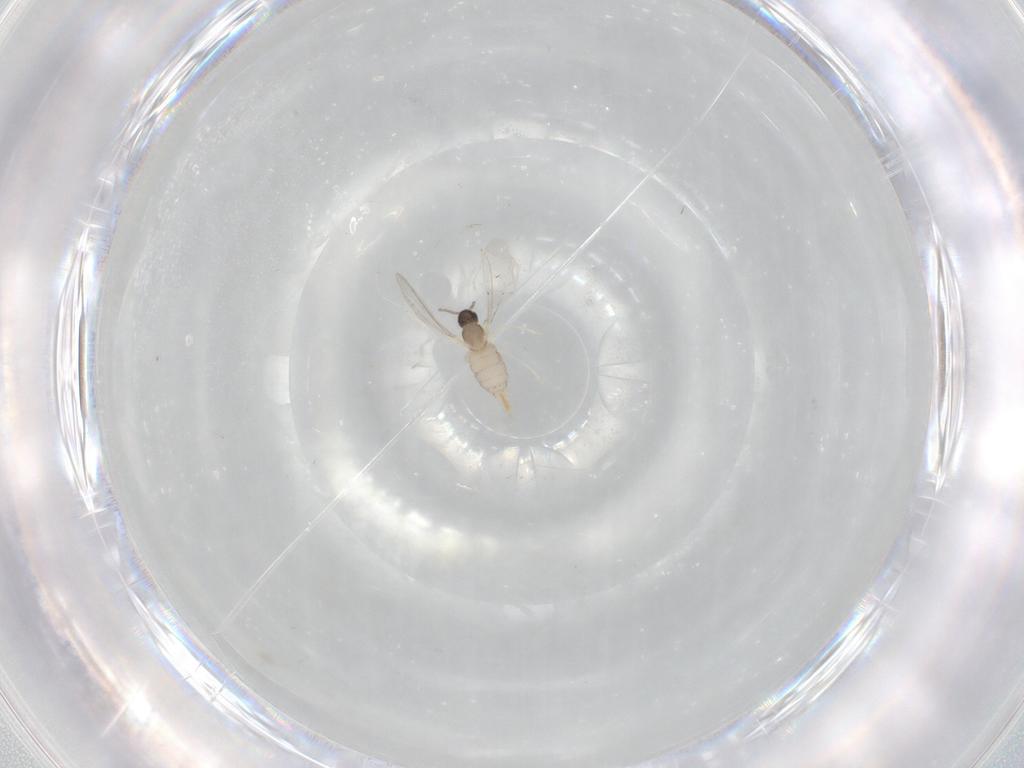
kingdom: Animalia
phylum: Arthropoda
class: Insecta
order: Diptera
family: Cecidomyiidae
